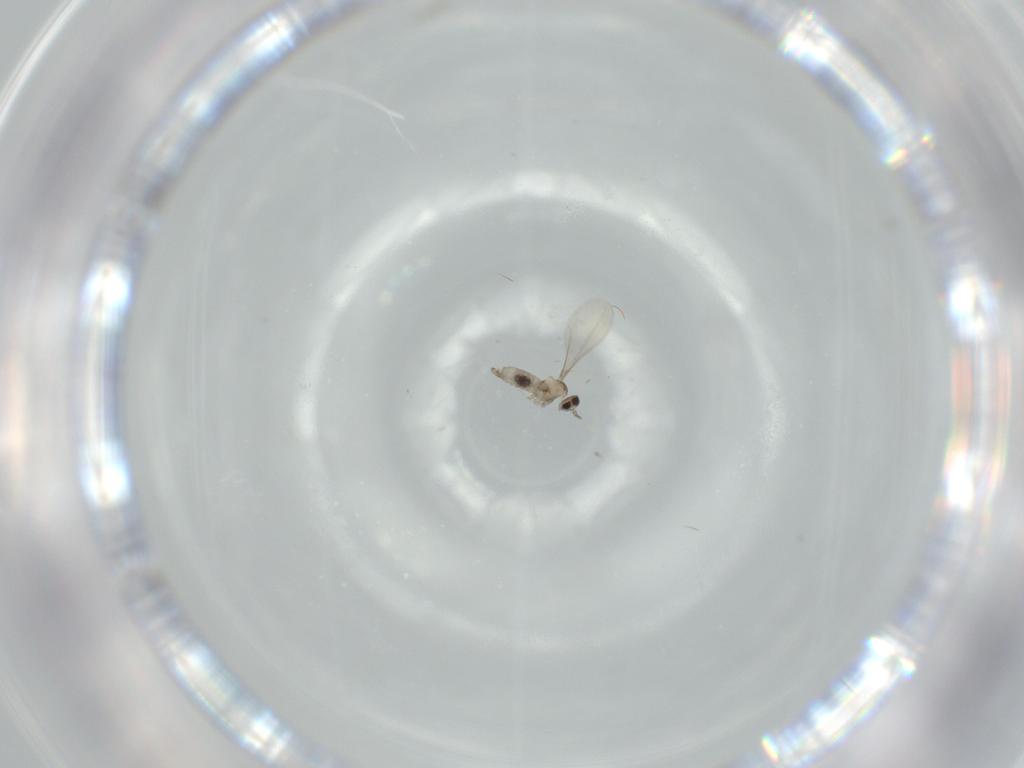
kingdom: Animalia
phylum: Arthropoda
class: Insecta
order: Diptera
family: Cecidomyiidae
